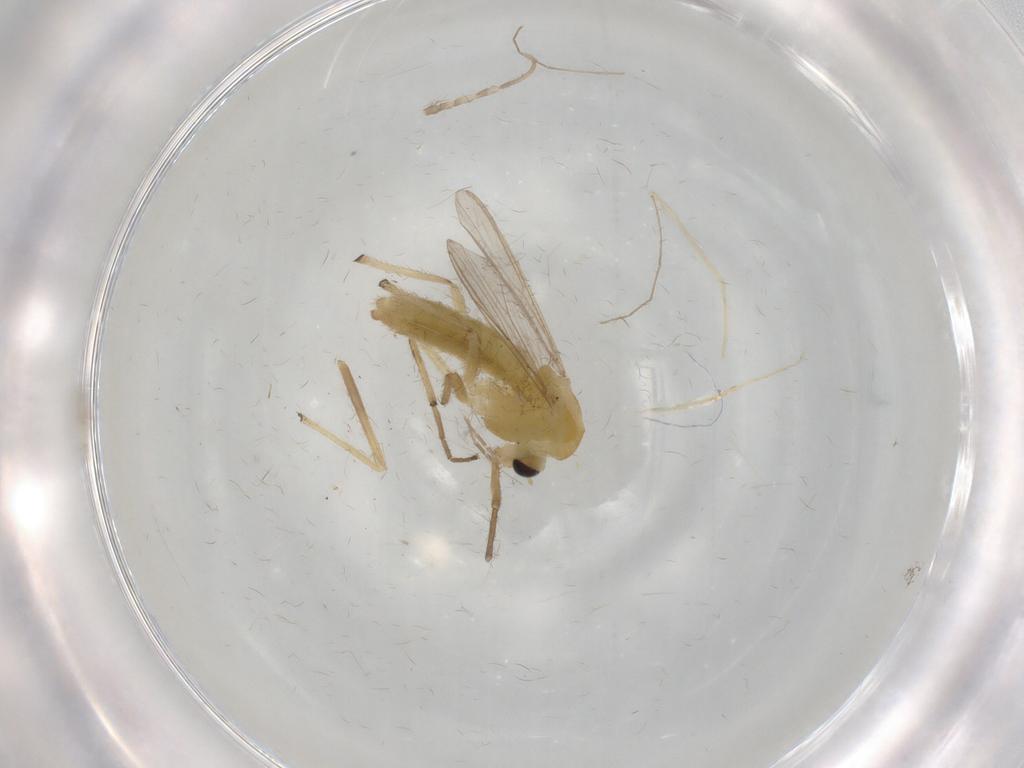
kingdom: Animalia
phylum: Arthropoda
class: Insecta
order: Diptera
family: Chironomidae
